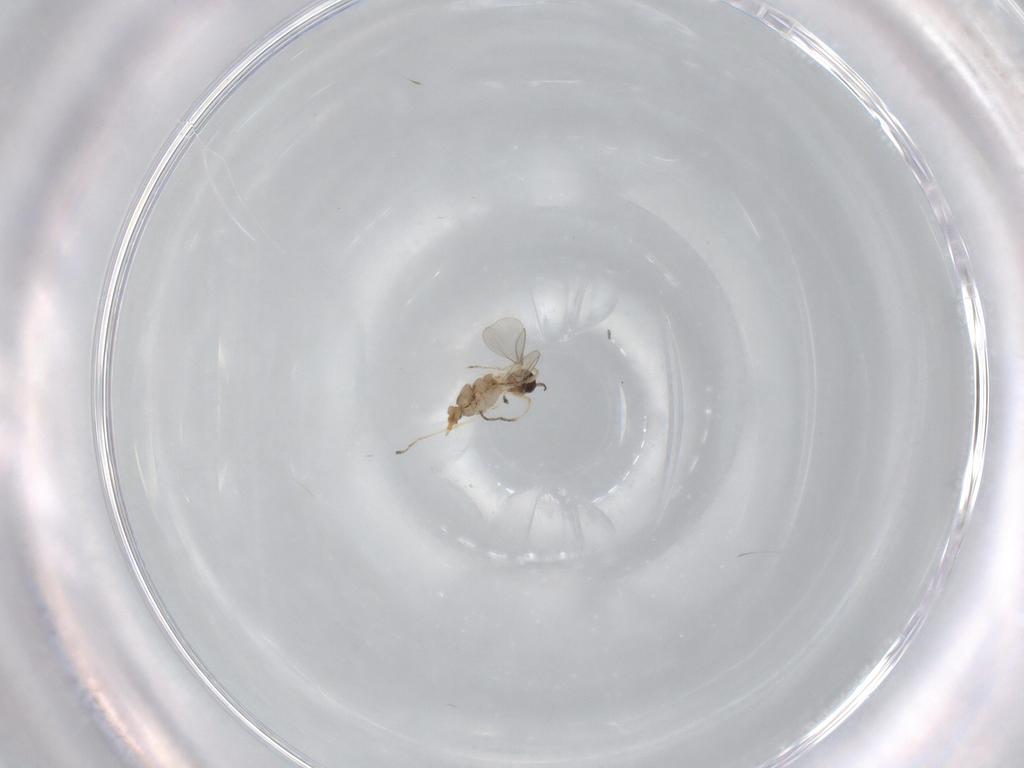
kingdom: Animalia
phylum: Arthropoda
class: Insecta
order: Diptera
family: Cecidomyiidae
